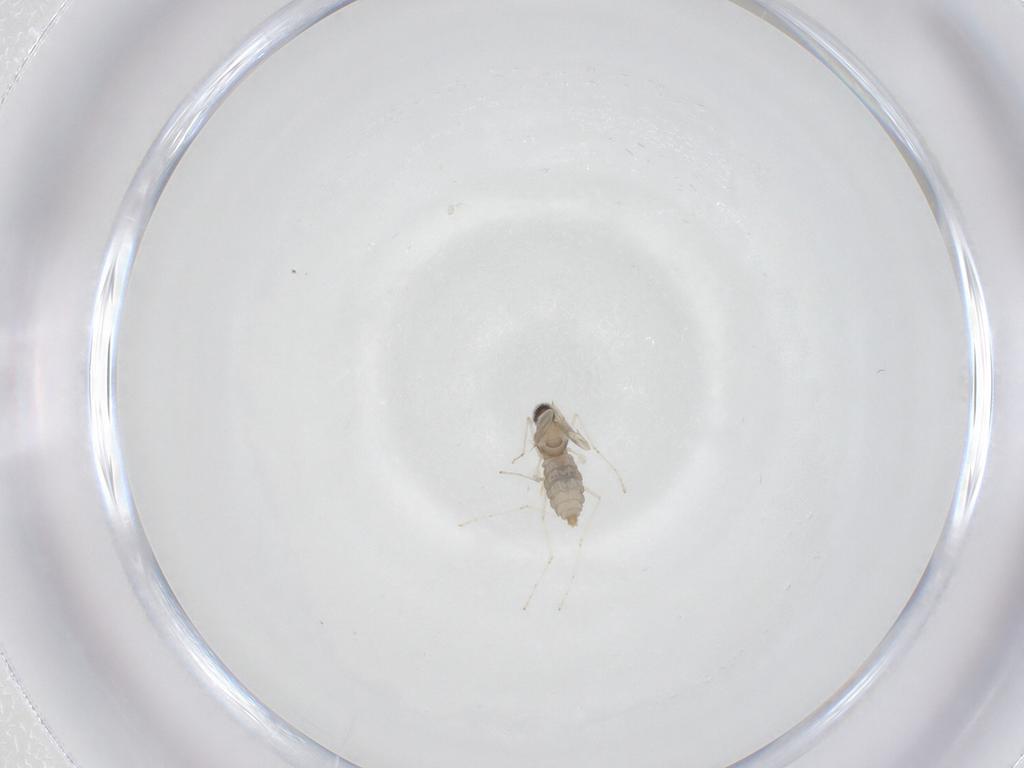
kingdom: Animalia
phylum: Arthropoda
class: Insecta
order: Diptera
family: Cecidomyiidae
